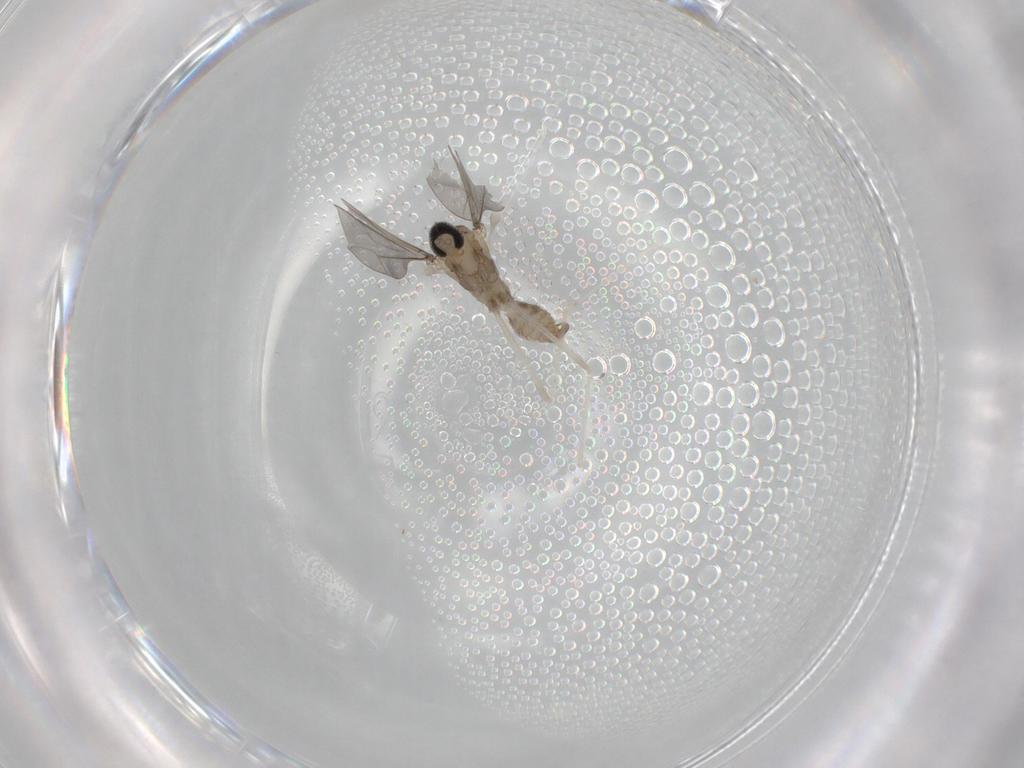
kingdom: Animalia
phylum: Arthropoda
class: Insecta
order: Diptera
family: Cecidomyiidae
